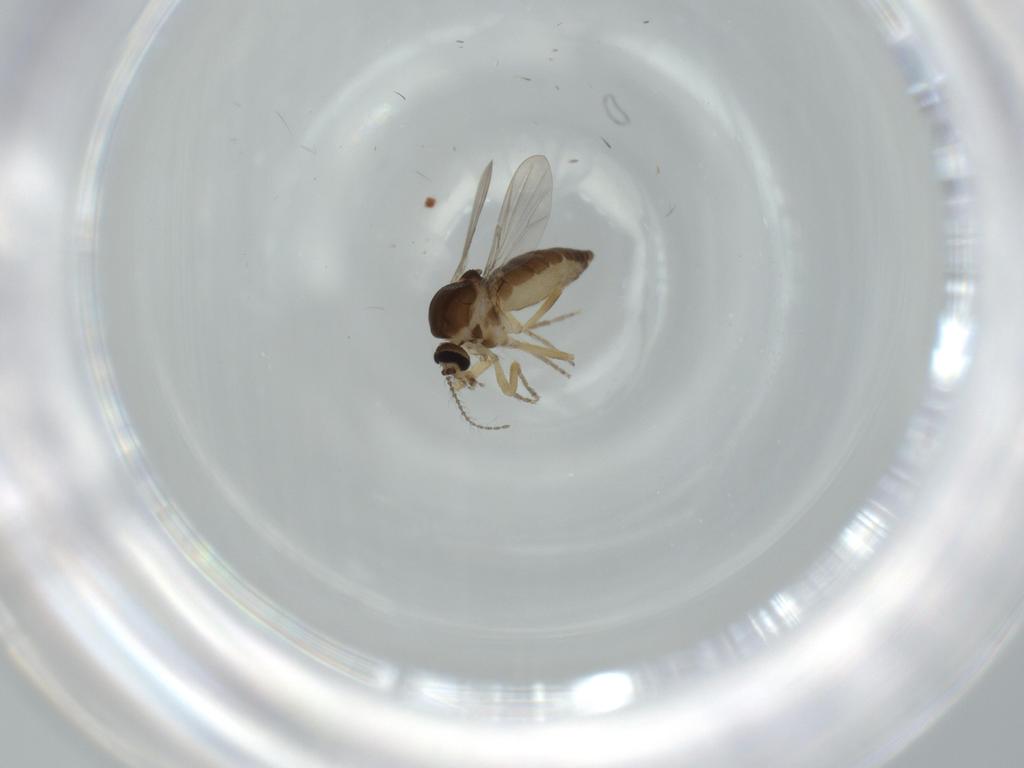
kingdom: Animalia
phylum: Arthropoda
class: Insecta
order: Diptera
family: Ceratopogonidae
